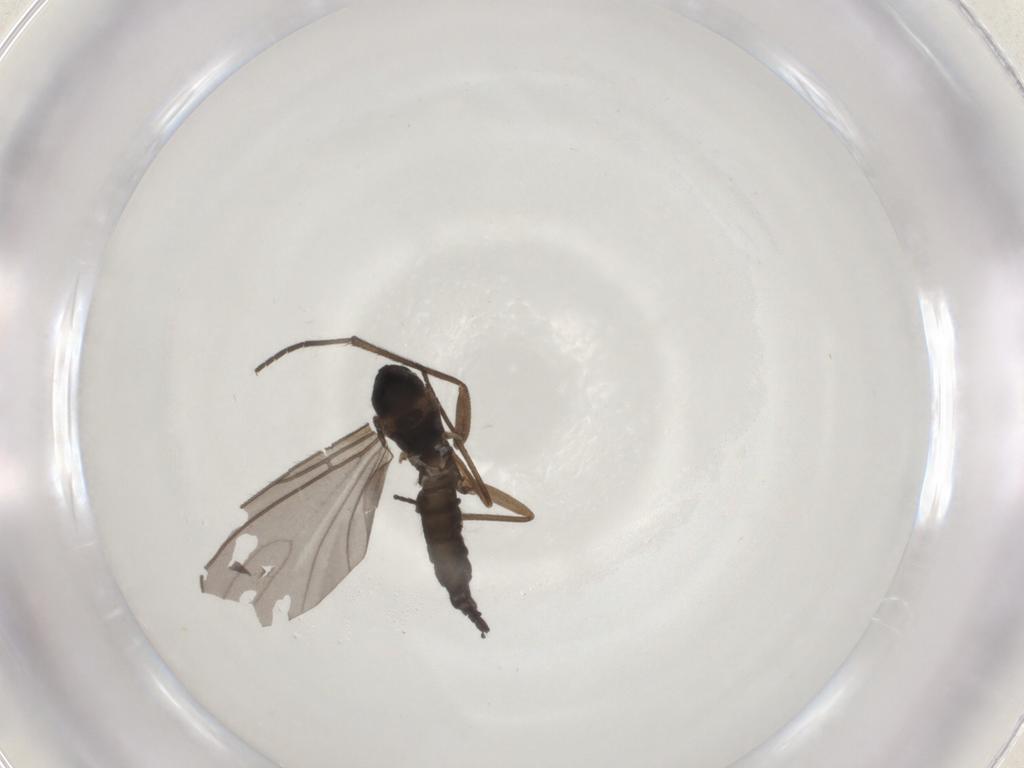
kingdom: Animalia
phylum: Arthropoda
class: Insecta
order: Diptera
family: Sciaridae
